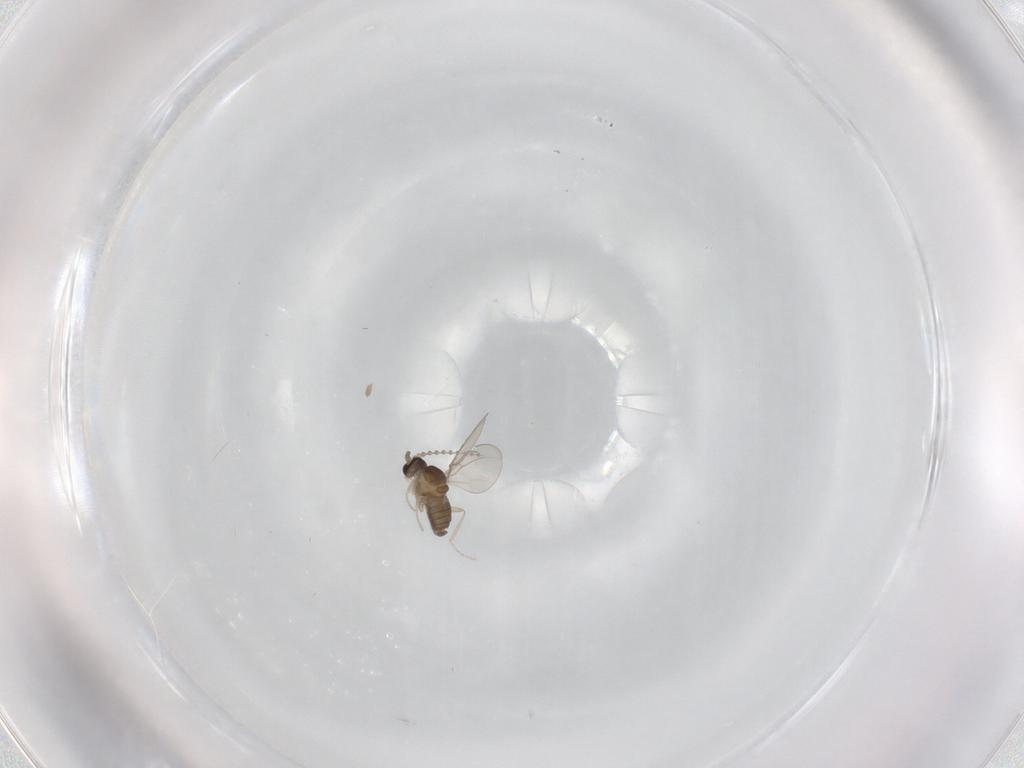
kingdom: Animalia
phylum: Arthropoda
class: Insecta
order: Diptera
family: Cecidomyiidae
